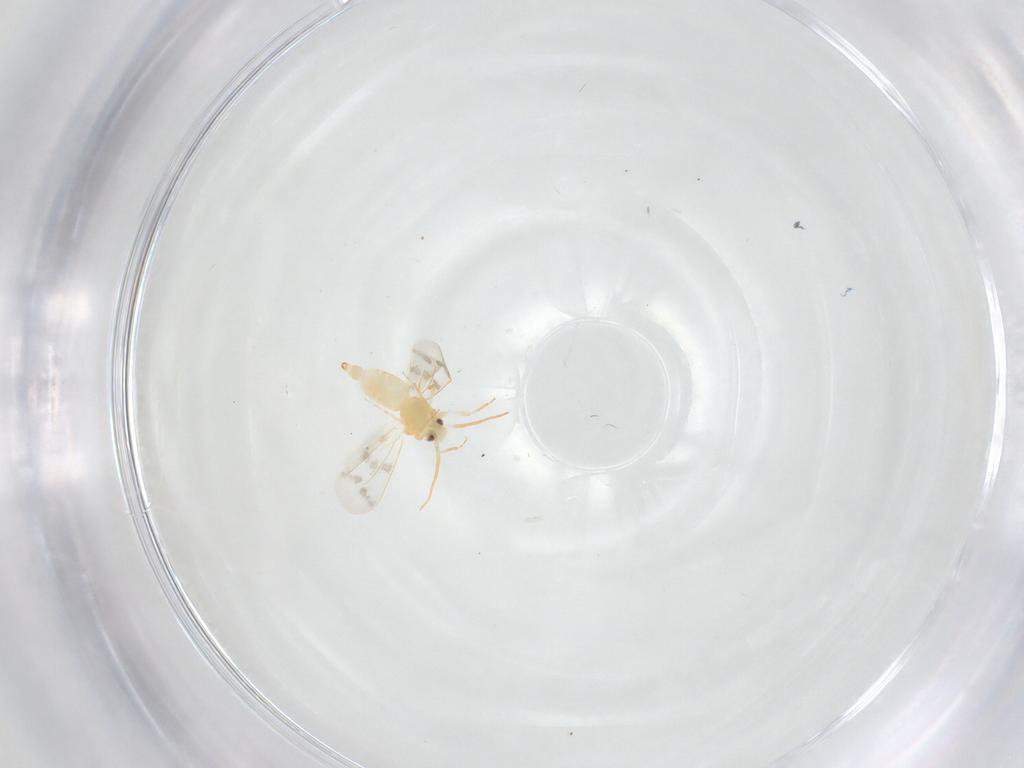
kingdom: Animalia
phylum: Arthropoda
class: Insecta
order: Hemiptera
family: Aleyrodidae
